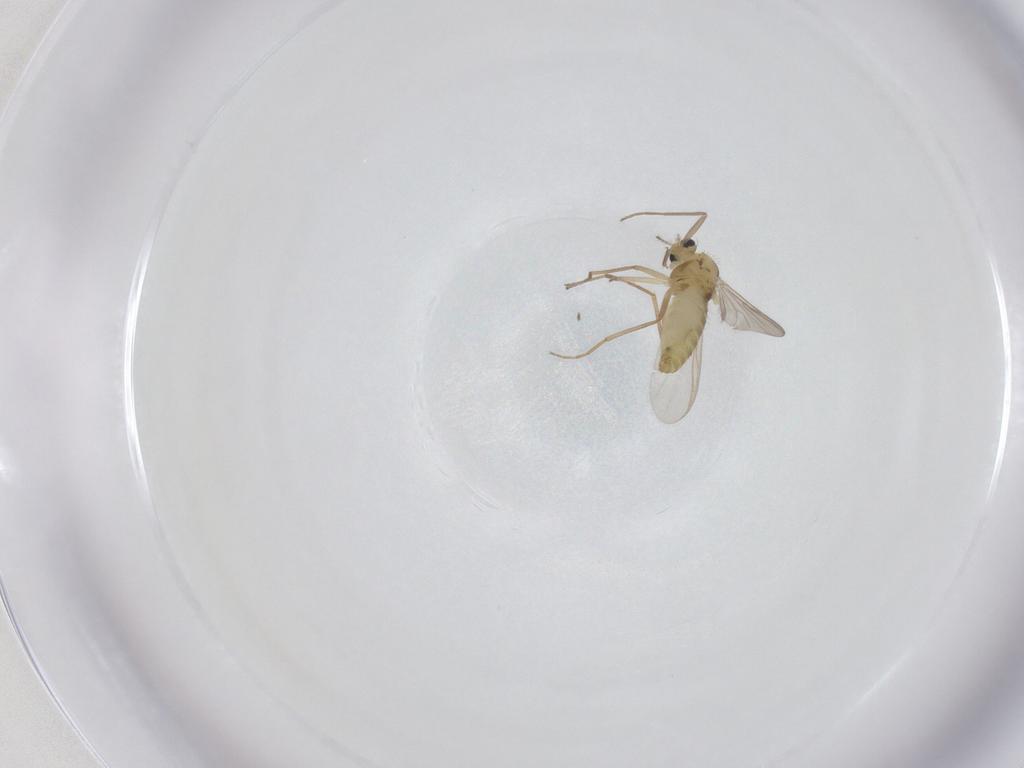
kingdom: Animalia
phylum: Arthropoda
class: Insecta
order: Diptera
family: Chironomidae
